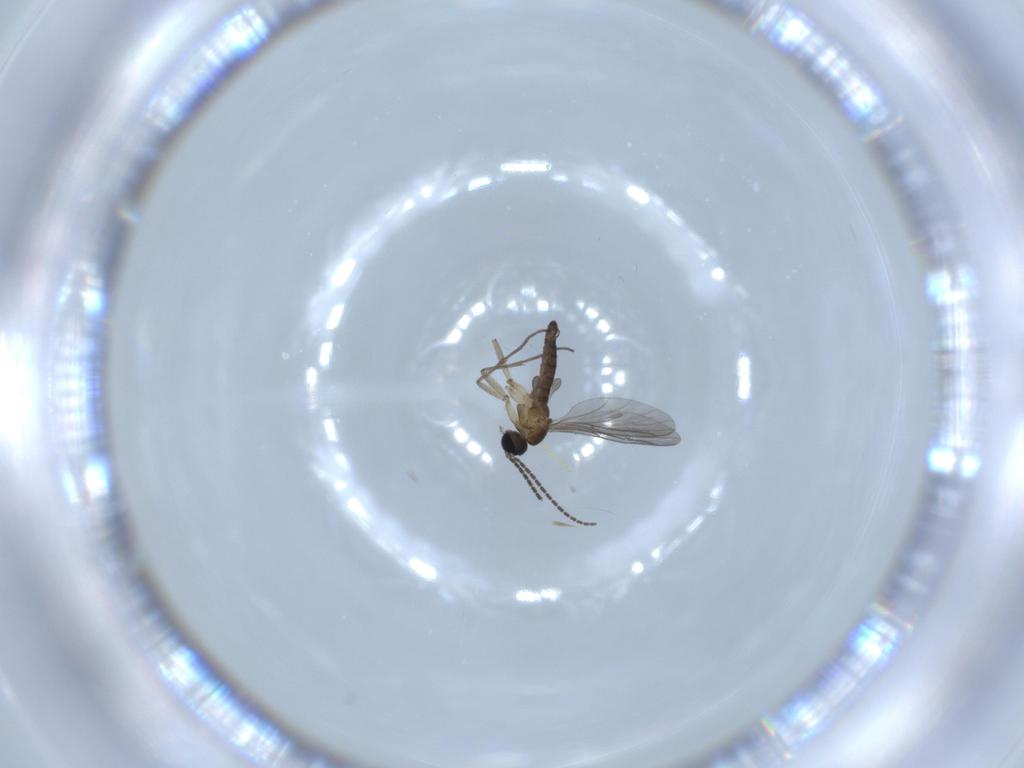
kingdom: Animalia
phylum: Arthropoda
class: Insecta
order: Diptera
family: Sciaridae
